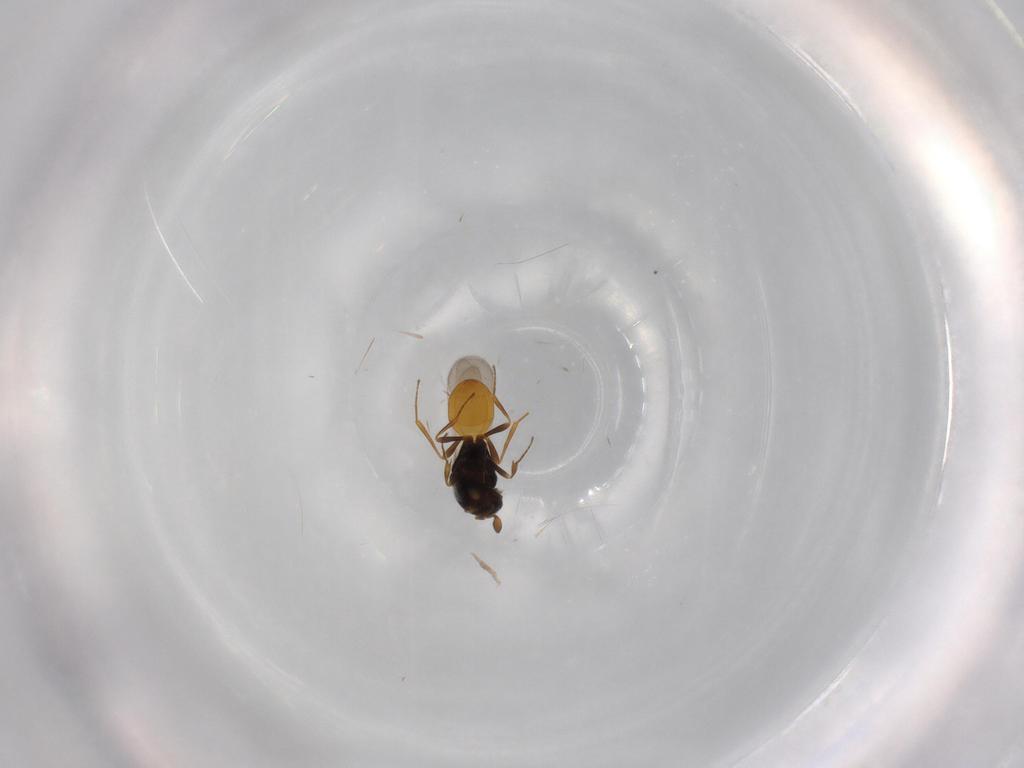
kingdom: Animalia
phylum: Arthropoda
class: Insecta
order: Hymenoptera
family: Scelionidae
